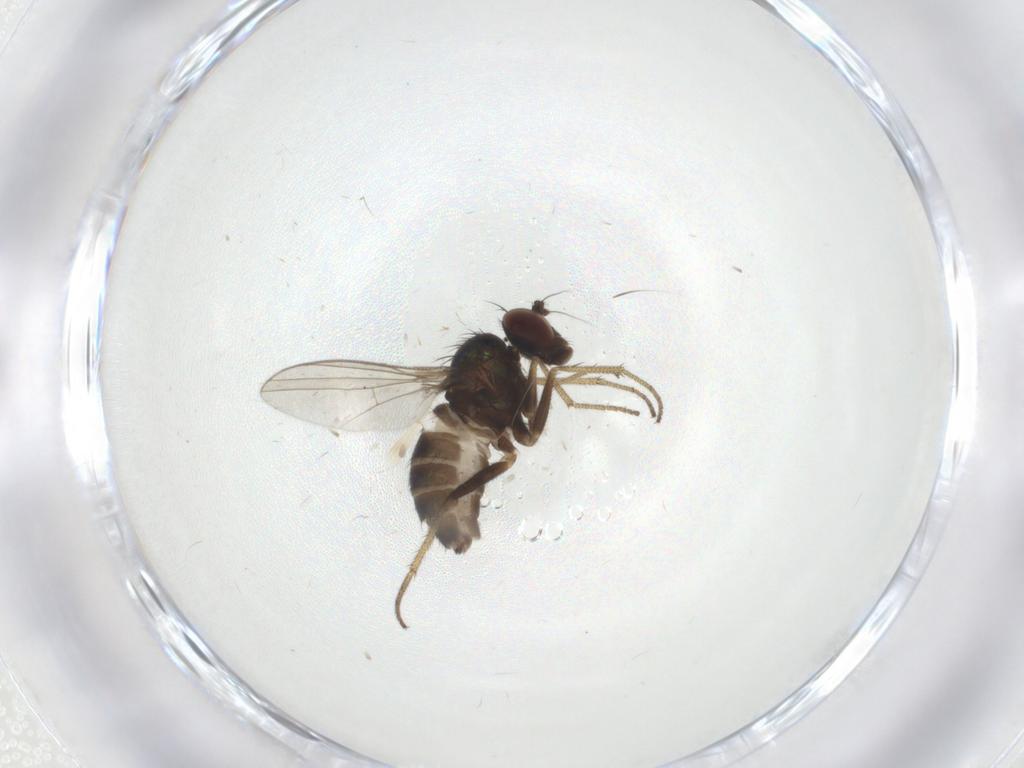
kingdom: Animalia
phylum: Arthropoda
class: Insecta
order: Diptera
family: Dolichopodidae
